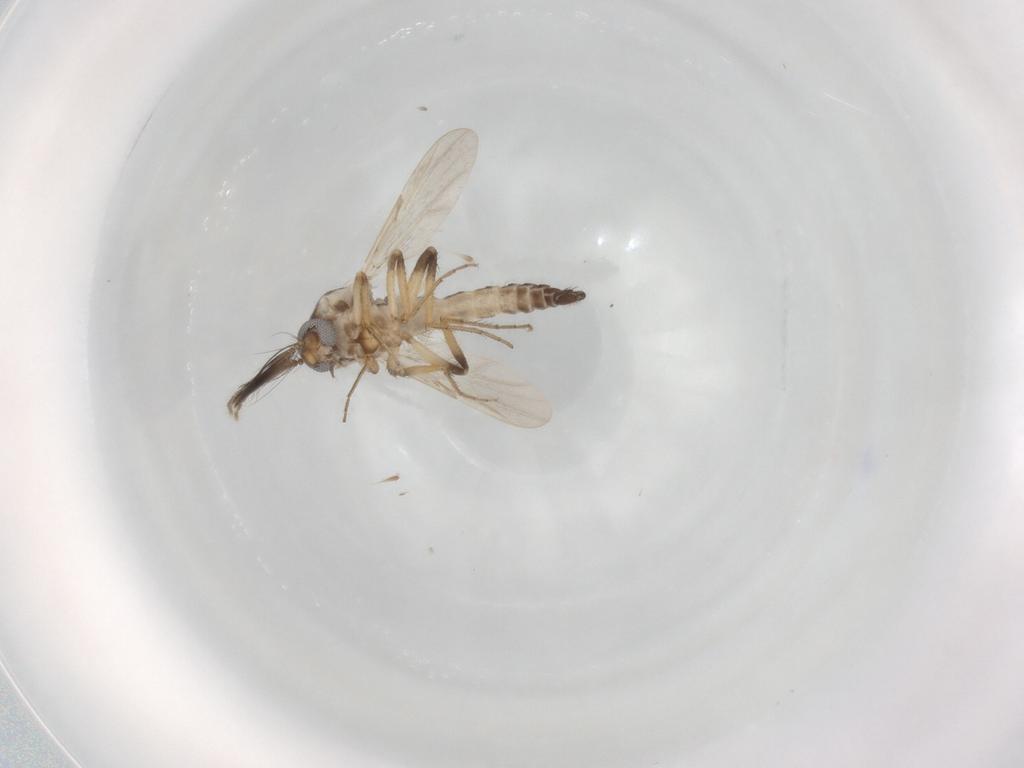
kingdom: Animalia
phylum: Arthropoda
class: Insecta
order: Diptera
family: Ceratopogonidae
